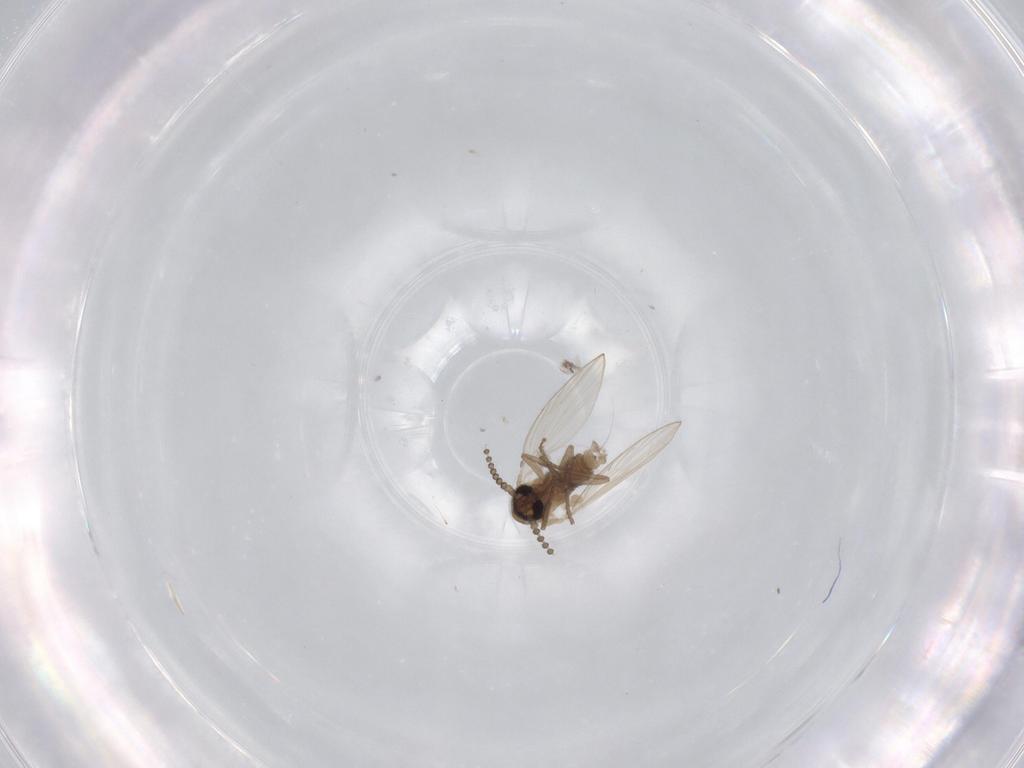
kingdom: Animalia
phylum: Arthropoda
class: Insecta
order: Diptera
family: Psychodidae
